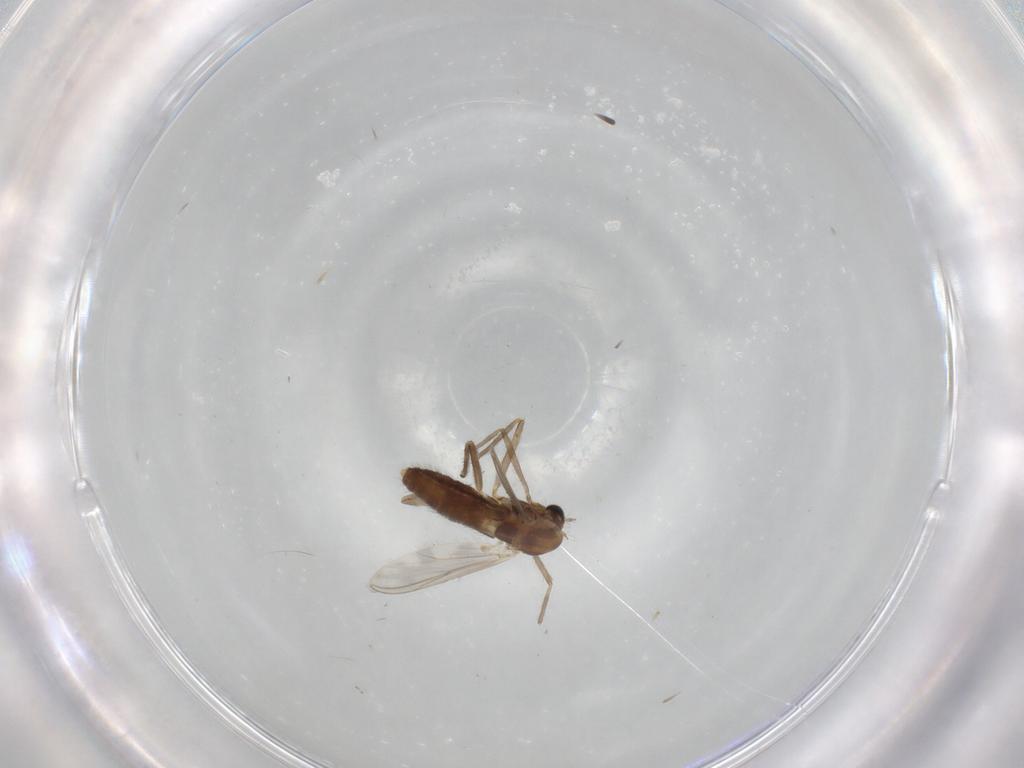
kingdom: Animalia
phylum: Arthropoda
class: Insecta
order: Diptera
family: Chironomidae
